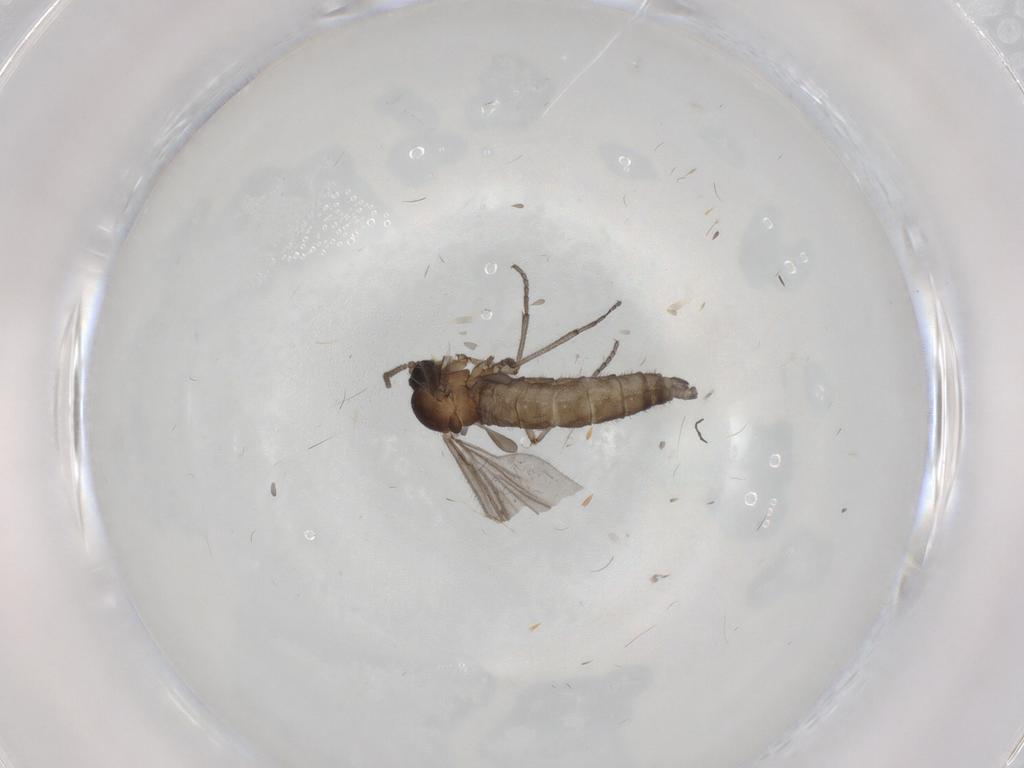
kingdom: Animalia
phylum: Arthropoda
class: Insecta
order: Diptera
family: Sciaridae
